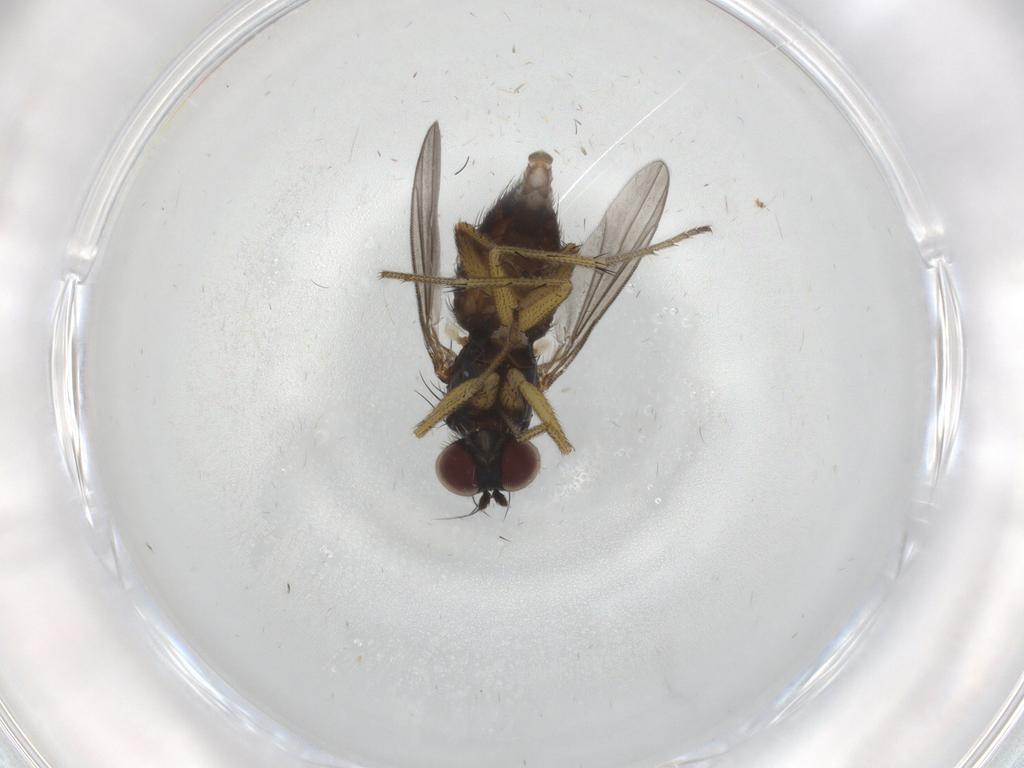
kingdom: Animalia
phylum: Arthropoda
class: Insecta
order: Diptera
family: Dolichopodidae
